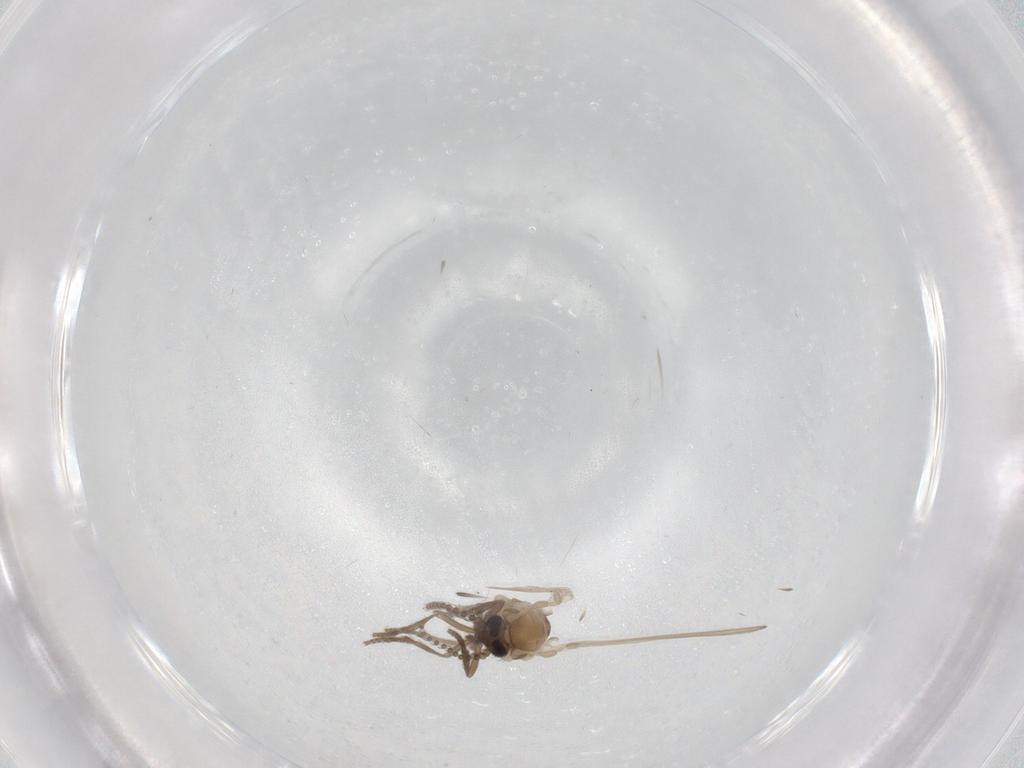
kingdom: Animalia
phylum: Arthropoda
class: Insecta
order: Diptera
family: Psychodidae
